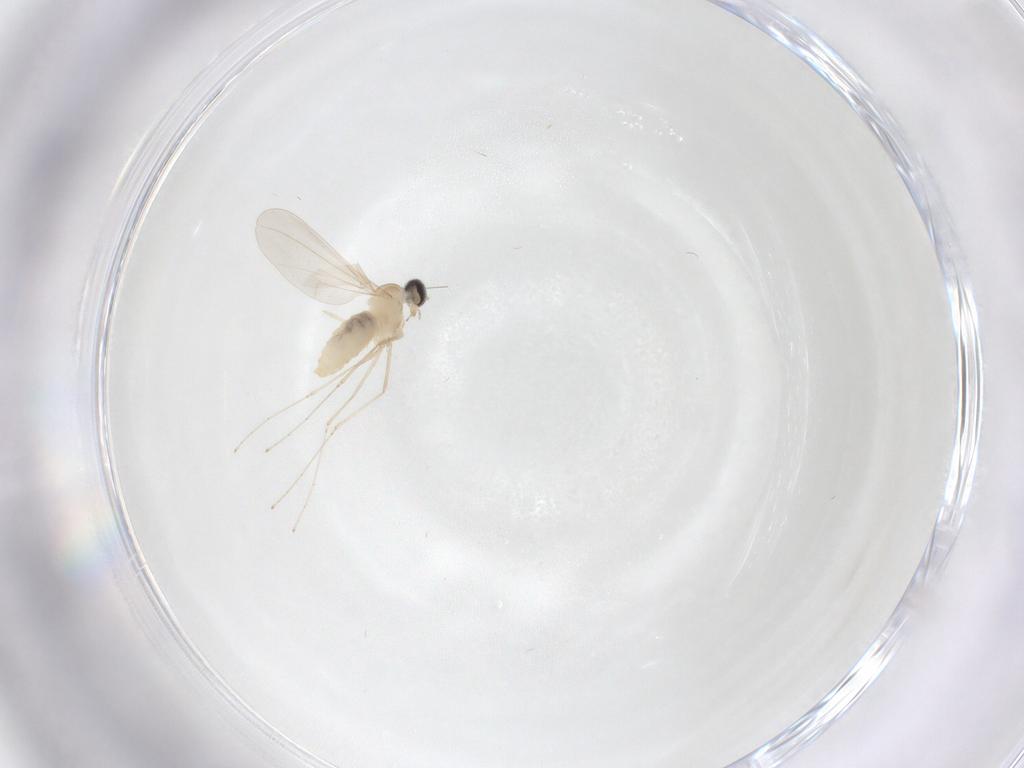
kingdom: Animalia
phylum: Arthropoda
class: Insecta
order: Diptera
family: Cecidomyiidae
